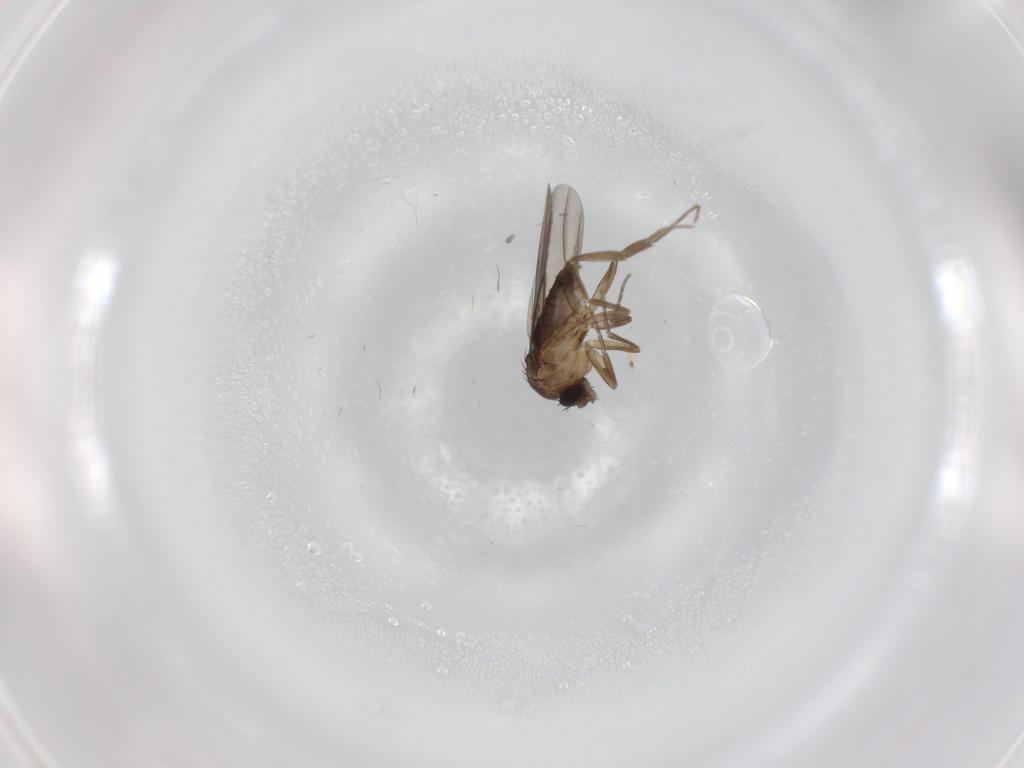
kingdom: Animalia
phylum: Arthropoda
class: Insecta
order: Diptera
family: Phoridae
